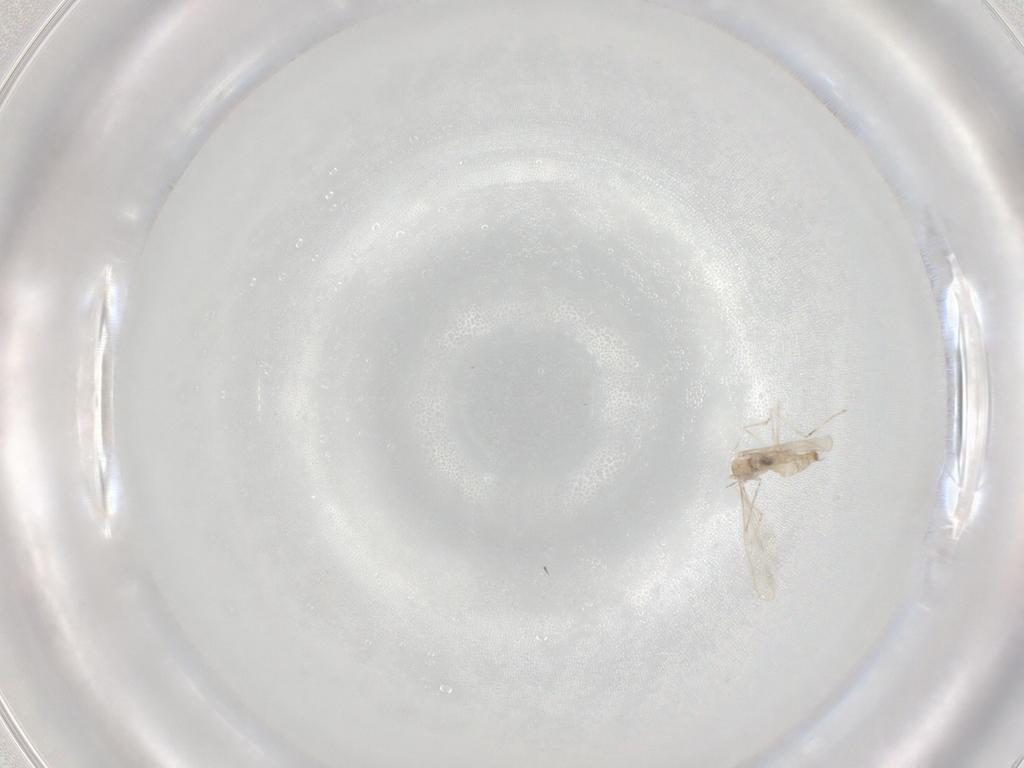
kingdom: Animalia
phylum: Arthropoda
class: Insecta
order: Diptera
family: Cecidomyiidae
